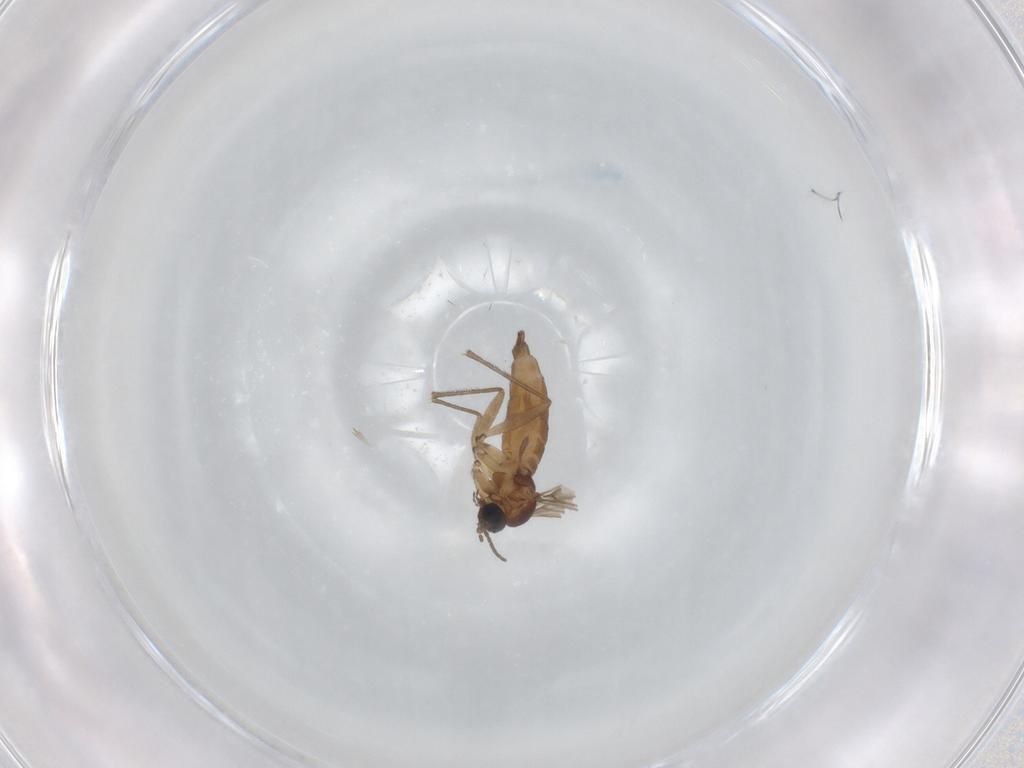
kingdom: Animalia
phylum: Arthropoda
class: Insecta
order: Diptera
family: Sciaridae
